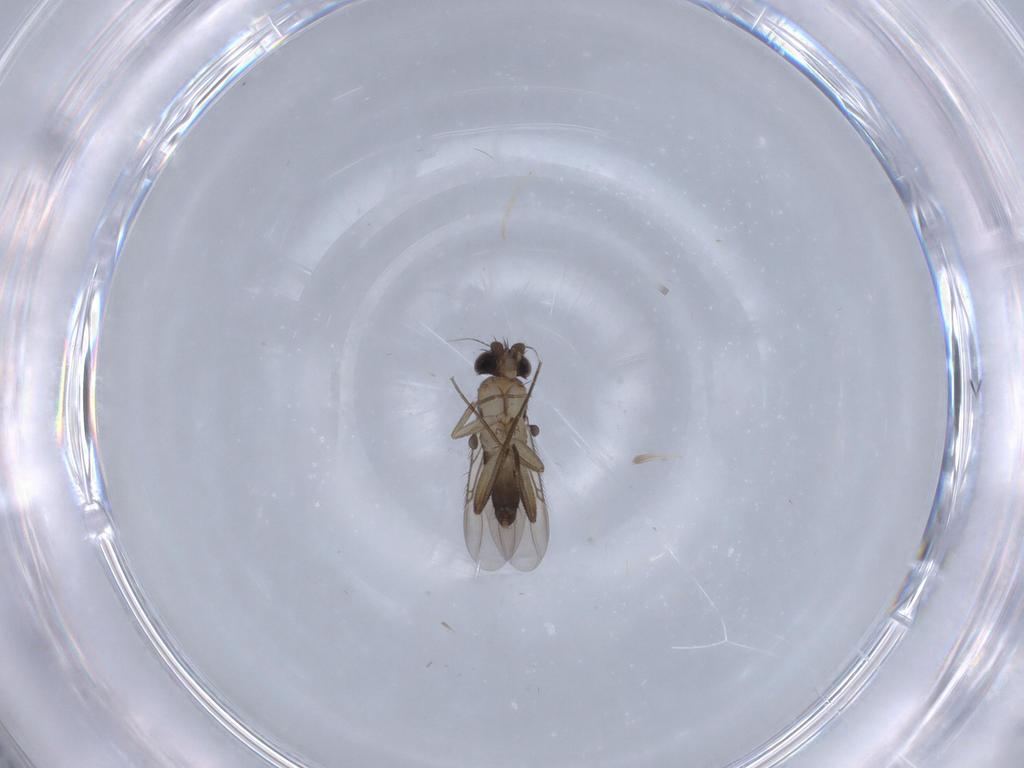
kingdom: Animalia
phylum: Arthropoda
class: Insecta
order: Diptera
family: Phoridae
